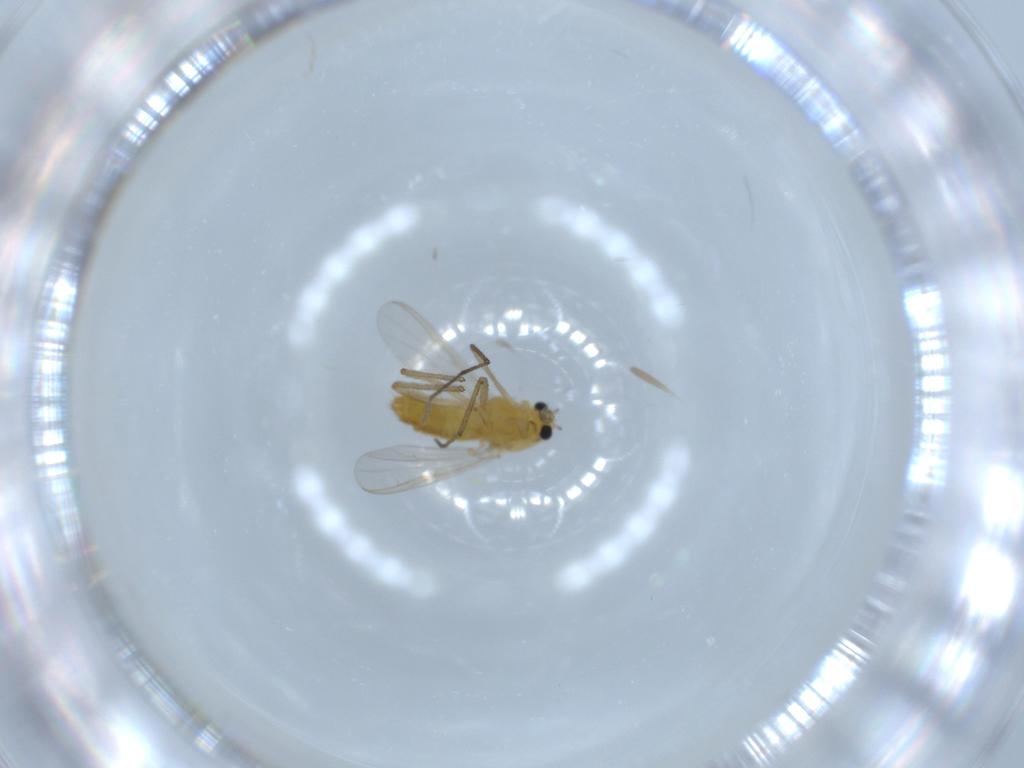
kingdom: Animalia
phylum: Arthropoda
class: Insecta
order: Diptera
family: Chironomidae
